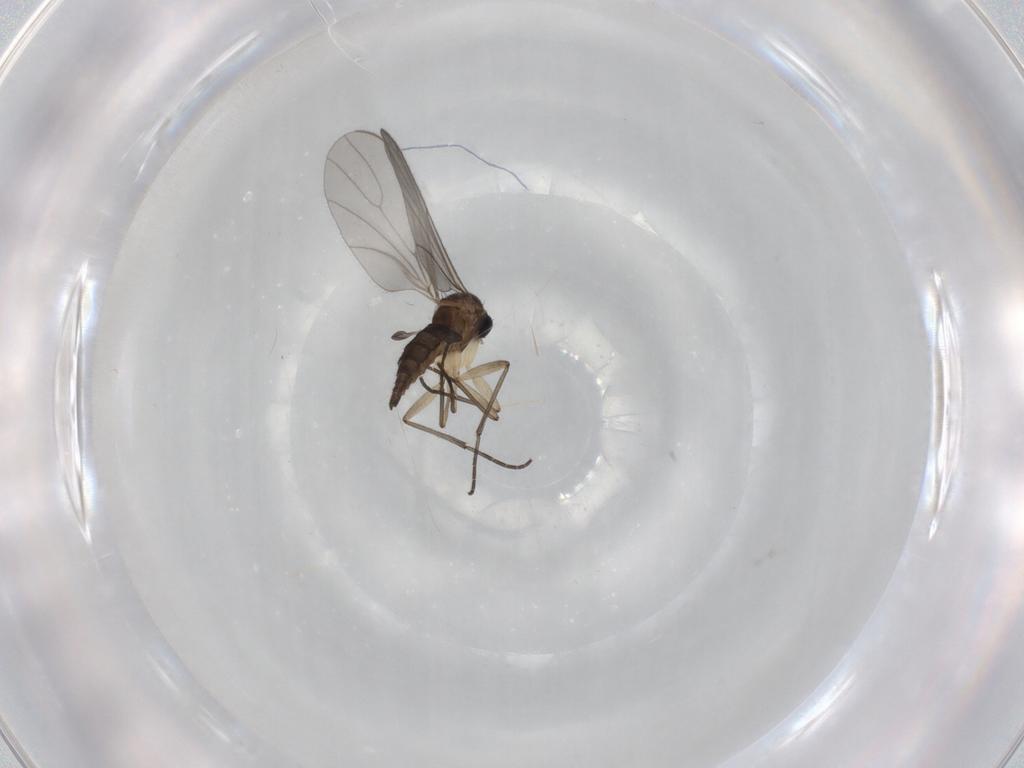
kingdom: Animalia
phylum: Arthropoda
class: Insecta
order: Diptera
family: Sciaridae
